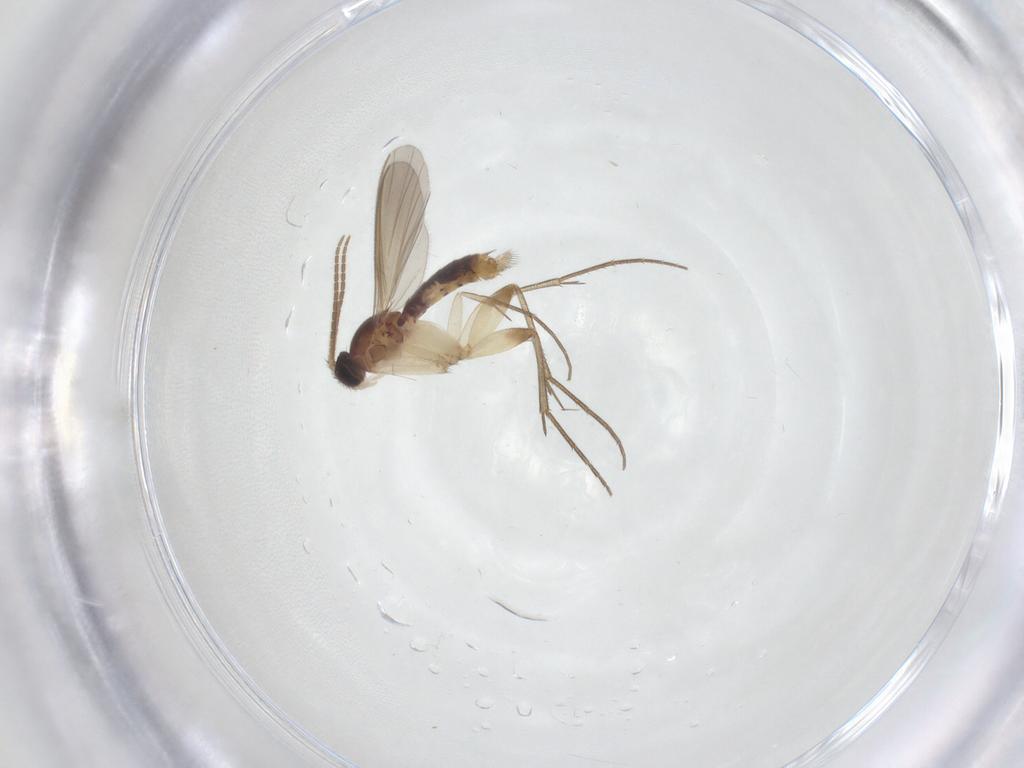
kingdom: Animalia
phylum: Arthropoda
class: Insecta
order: Diptera
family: Mycetophilidae
